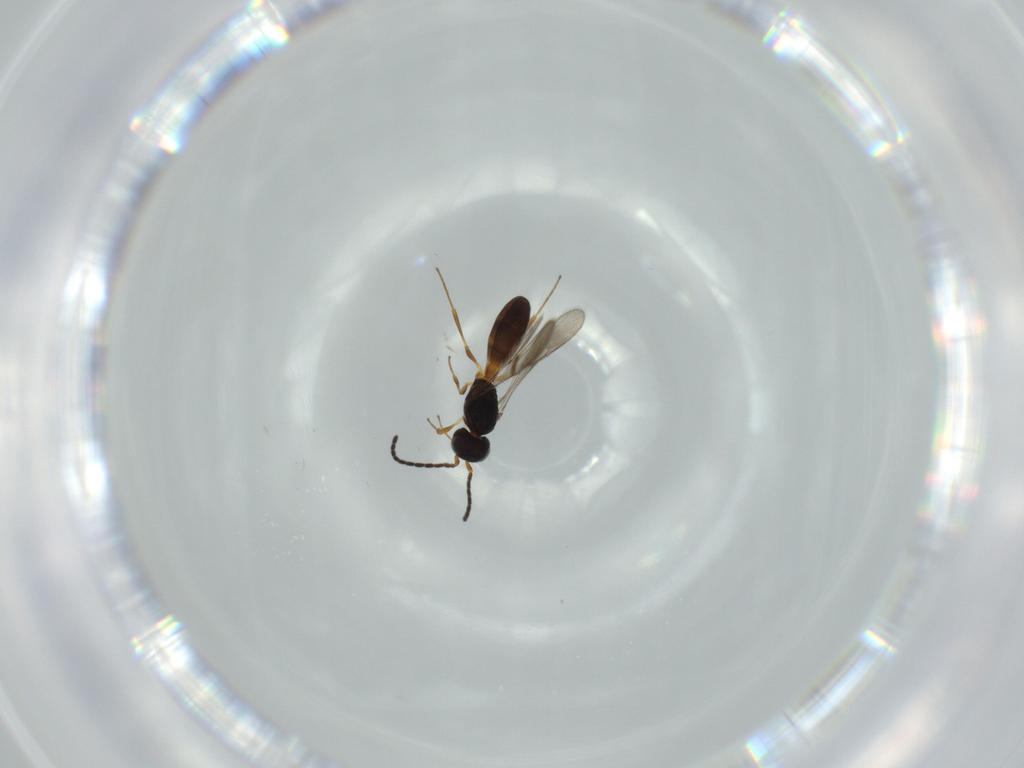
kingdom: Animalia
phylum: Arthropoda
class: Insecta
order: Hymenoptera
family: Scelionidae
